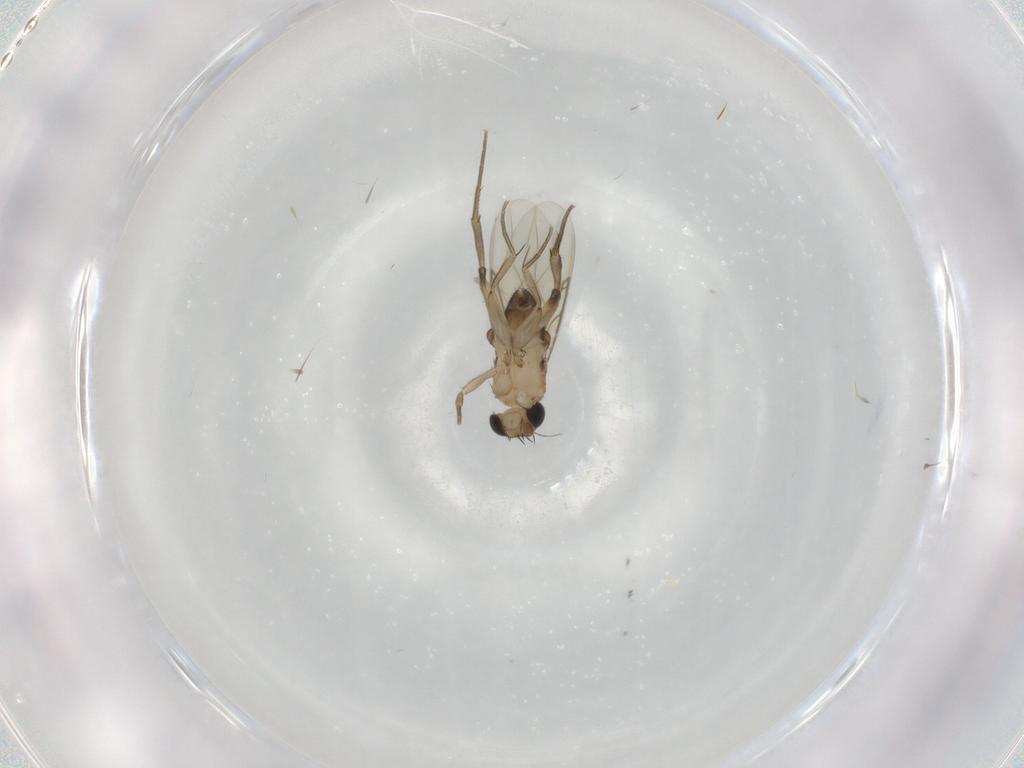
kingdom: Animalia
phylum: Arthropoda
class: Insecta
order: Diptera
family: Phoridae
